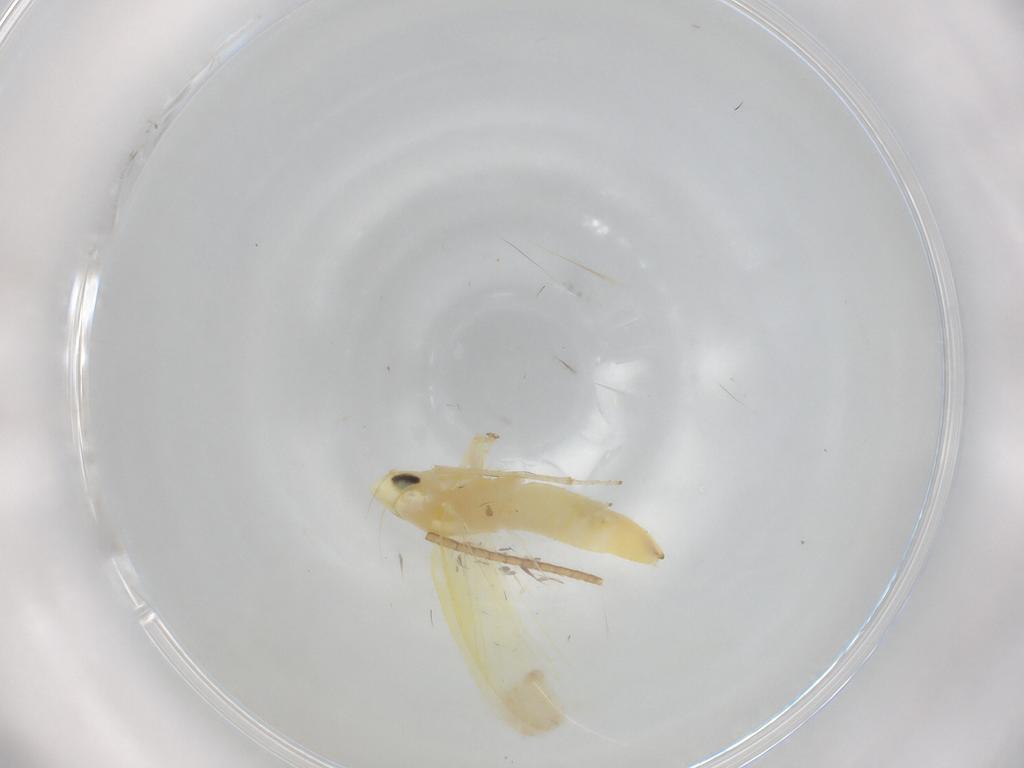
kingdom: Animalia
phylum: Arthropoda
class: Insecta
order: Hemiptera
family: Cicadellidae
